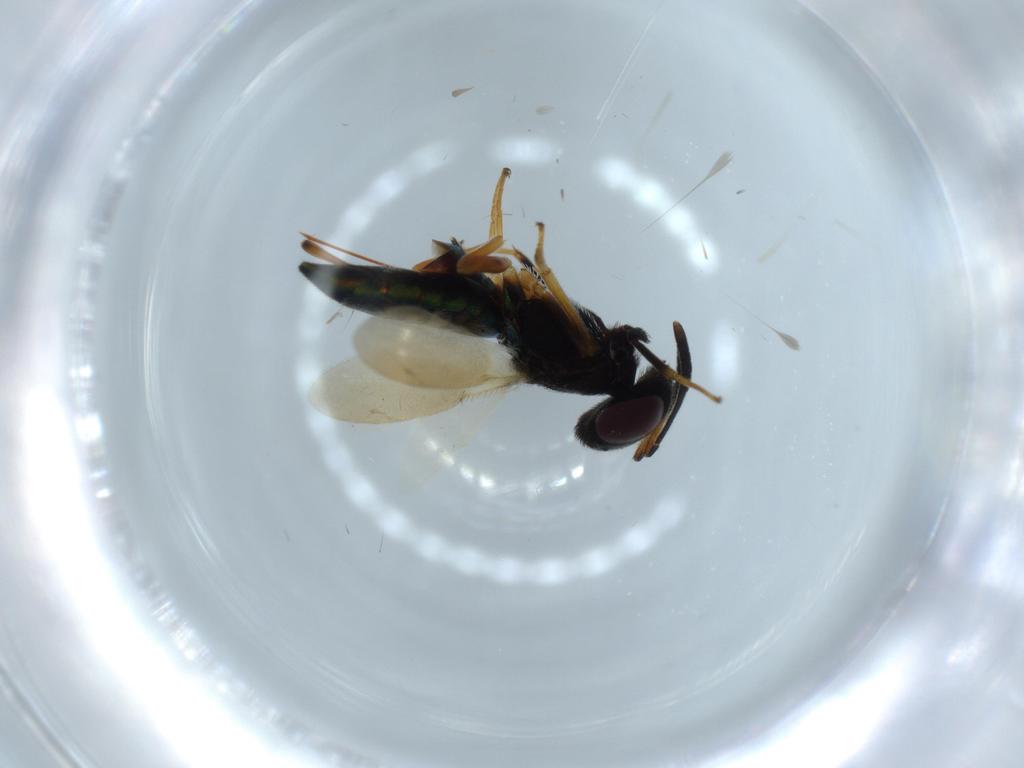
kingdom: Animalia
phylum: Arthropoda
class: Insecta
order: Hymenoptera
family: Eupelmidae
